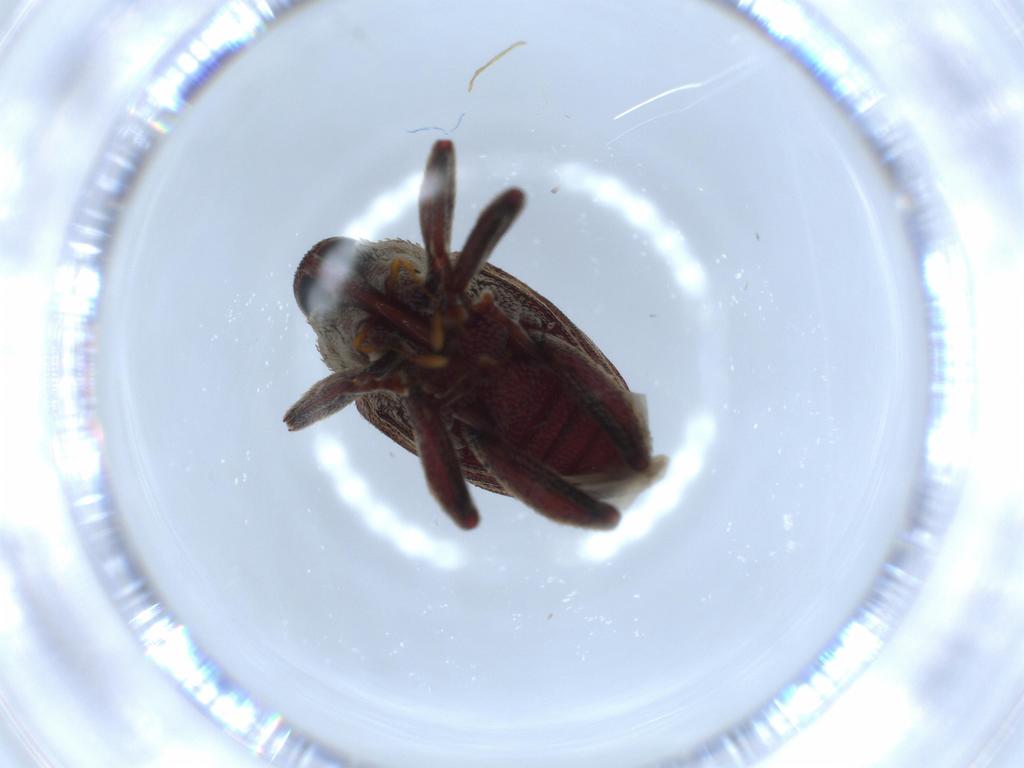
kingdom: Animalia
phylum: Arthropoda
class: Insecta
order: Coleoptera
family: Curculionidae
